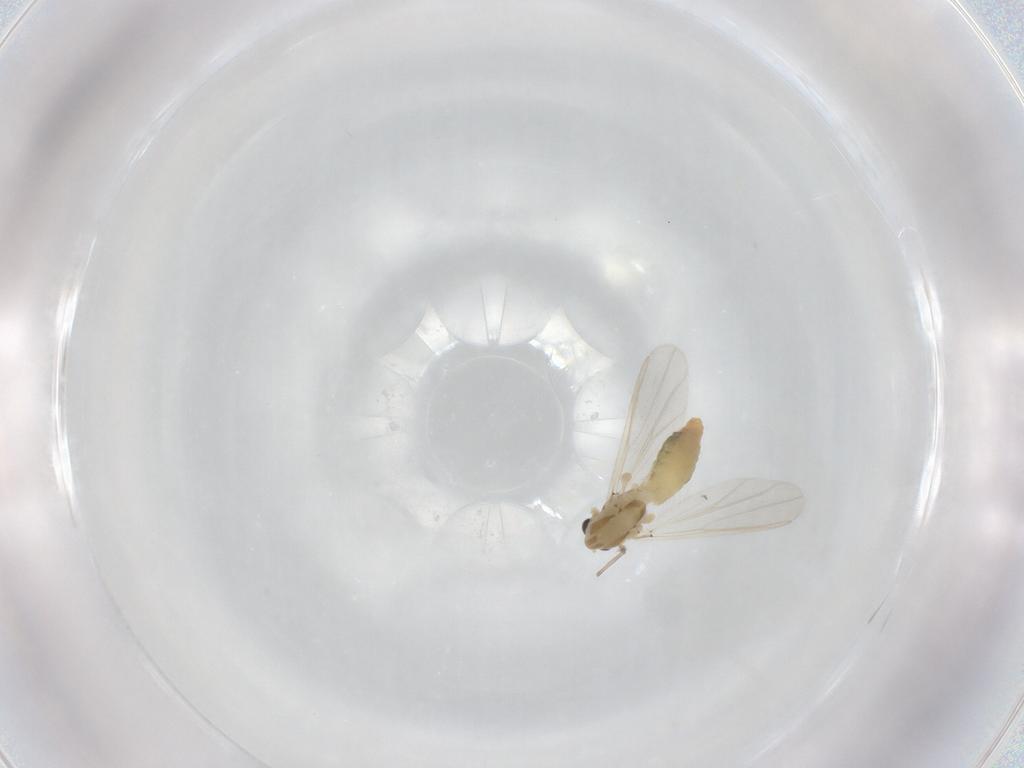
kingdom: Animalia
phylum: Arthropoda
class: Insecta
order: Diptera
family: Chironomidae
